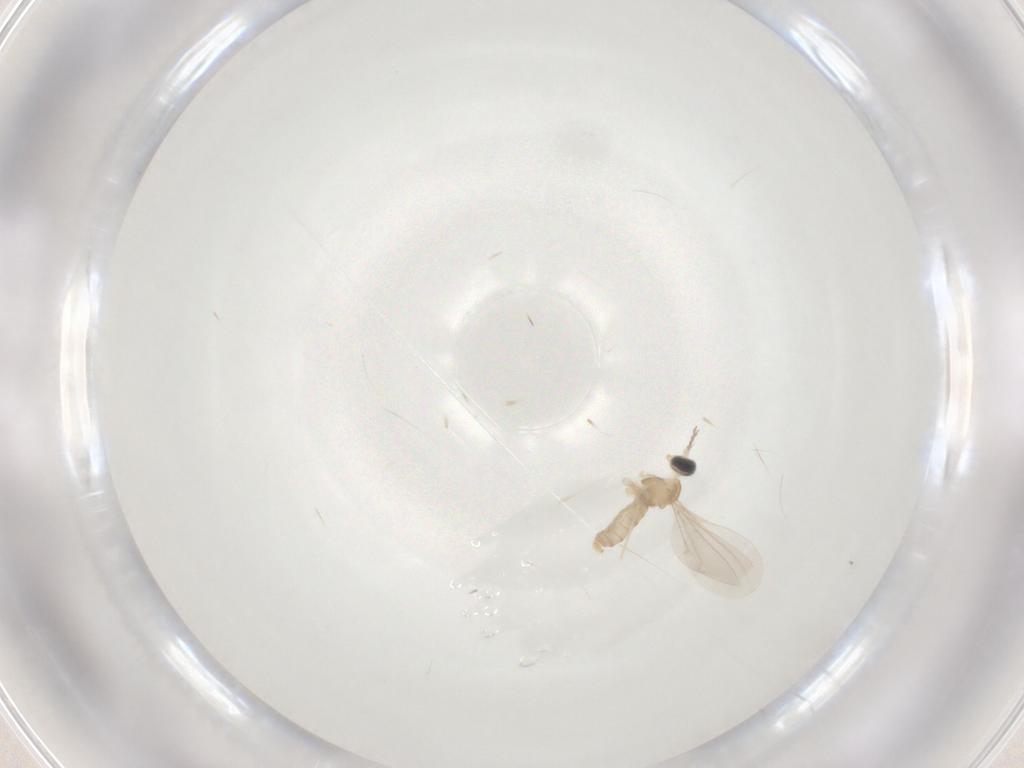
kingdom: Animalia
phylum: Arthropoda
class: Insecta
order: Diptera
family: Cecidomyiidae
